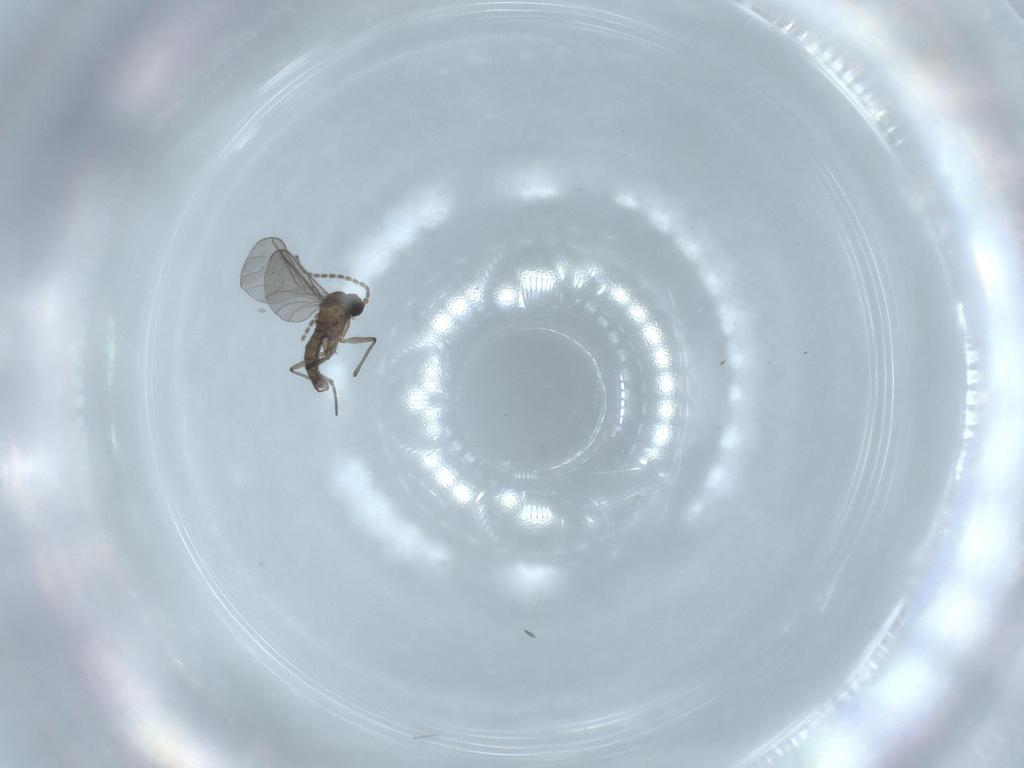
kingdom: Animalia
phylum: Arthropoda
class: Insecta
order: Diptera
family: Sciaridae
